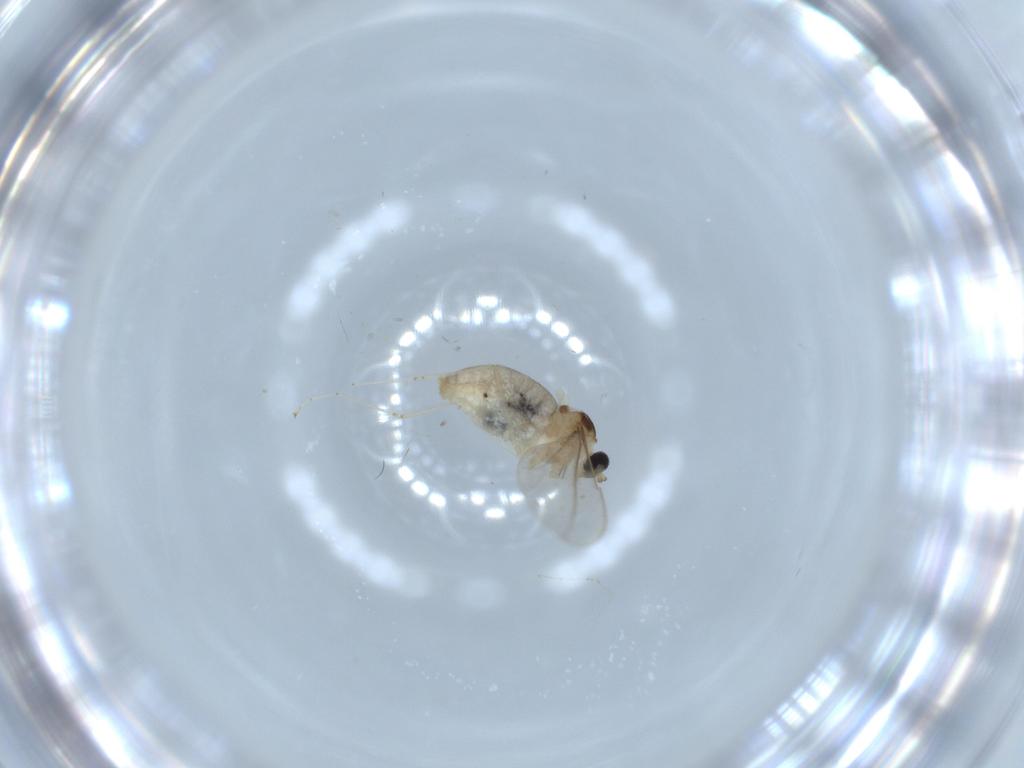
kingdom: Animalia
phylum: Arthropoda
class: Insecta
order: Diptera
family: Cecidomyiidae
